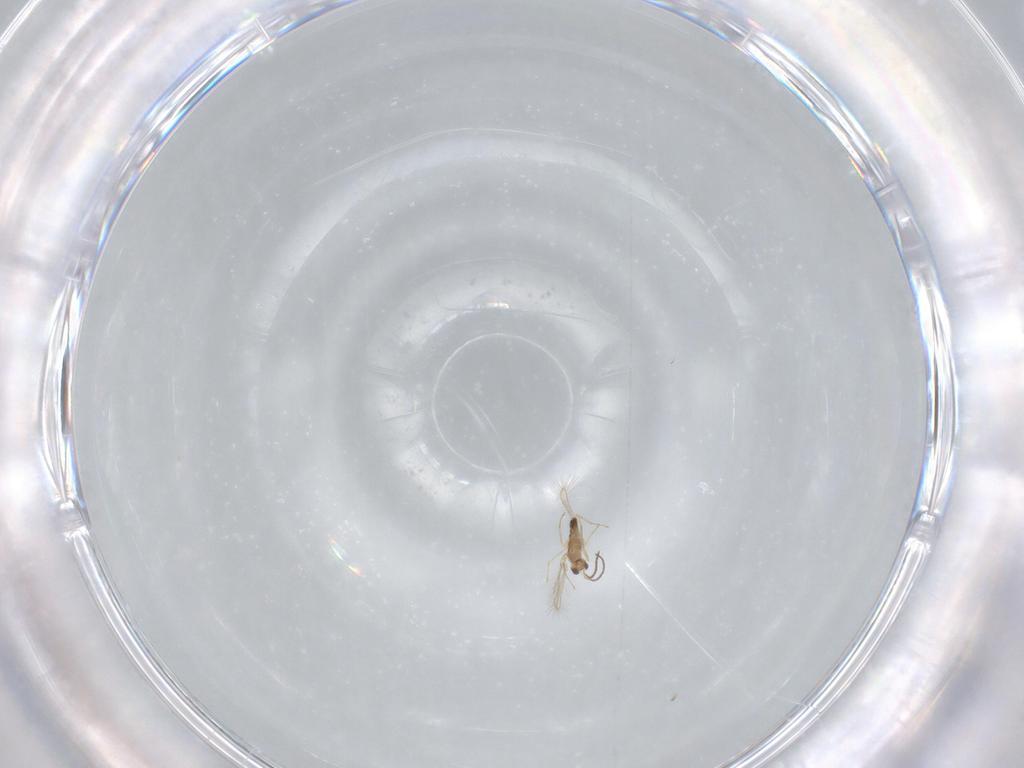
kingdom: Animalia
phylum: Arthropoda
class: Insecta
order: Hymenoptera
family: Mymaridae
